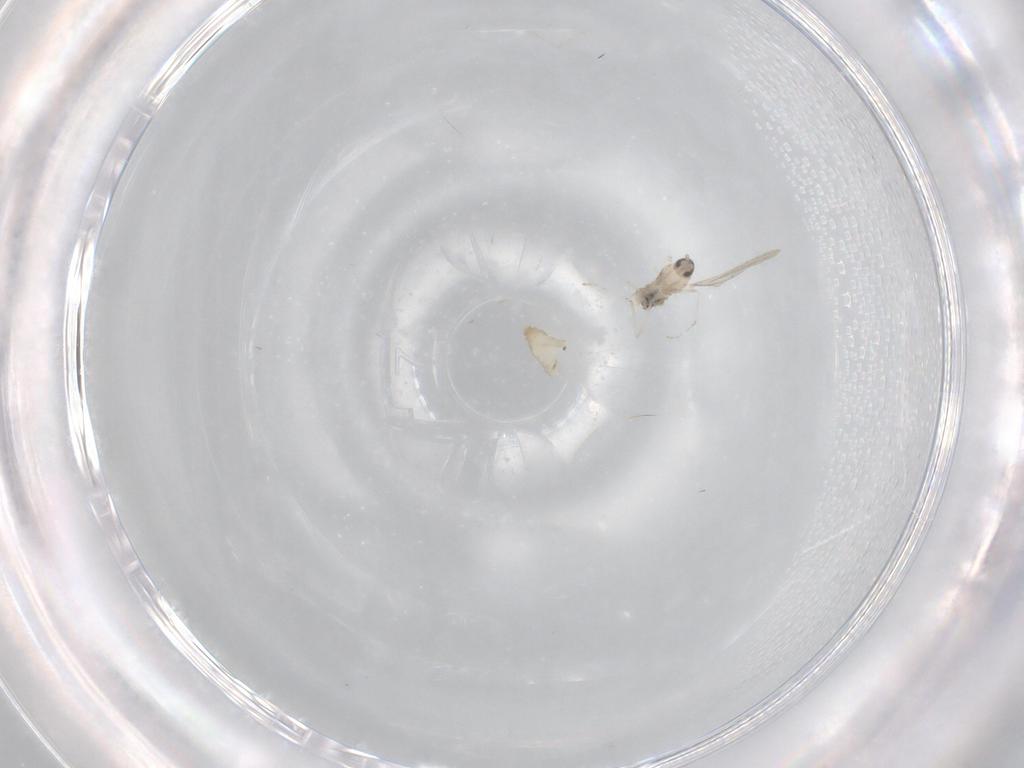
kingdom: Animalia
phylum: Arthropoda
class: Insecta
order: Diptera
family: Cecidomyiidae
